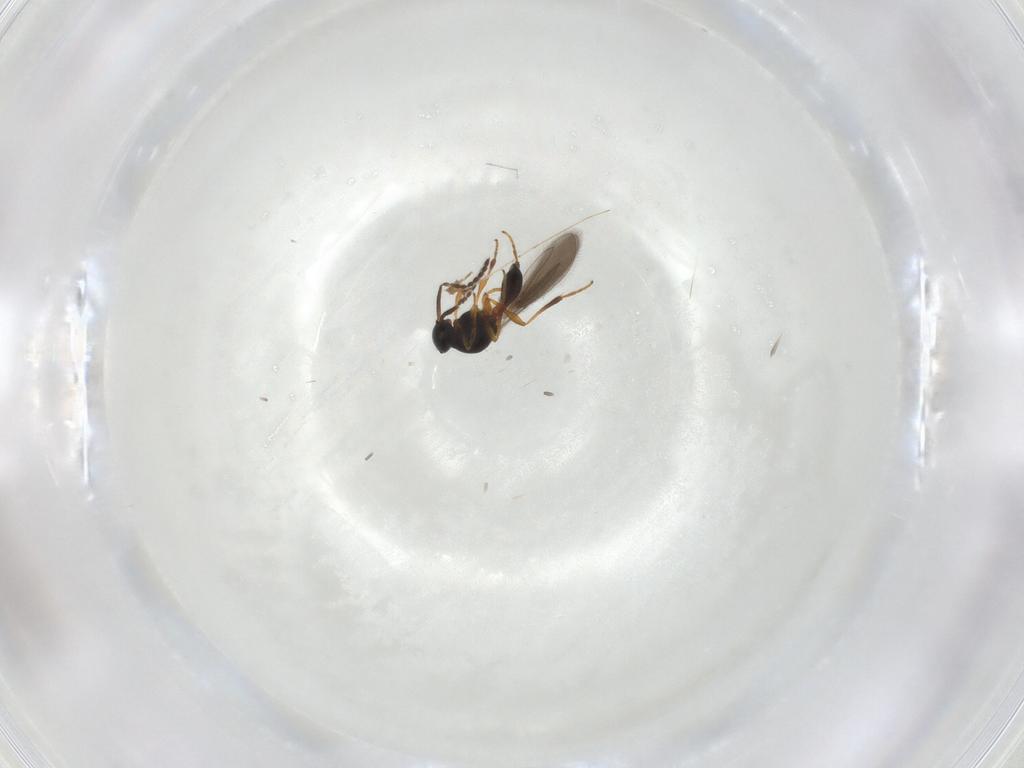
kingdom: Animalia
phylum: Arthropoda
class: Insecta
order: Hymenoptera
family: Platygastridae
